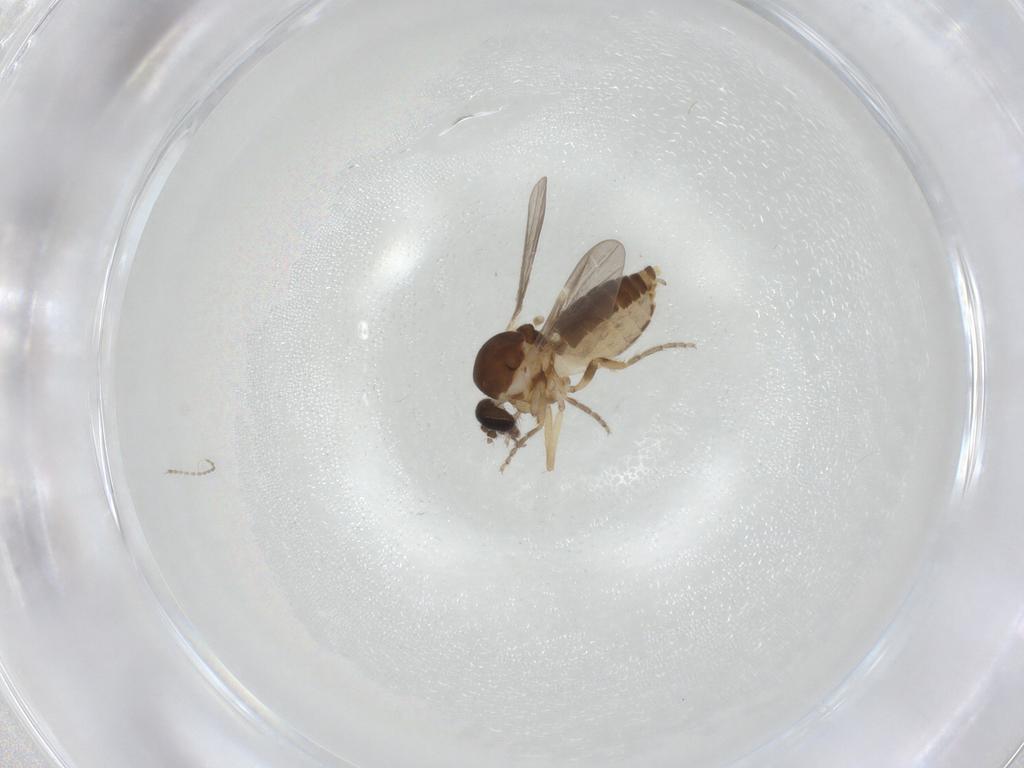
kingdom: Animalia
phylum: Arthropoda
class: Insecta
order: Diptera
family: Cecidomyiidae
